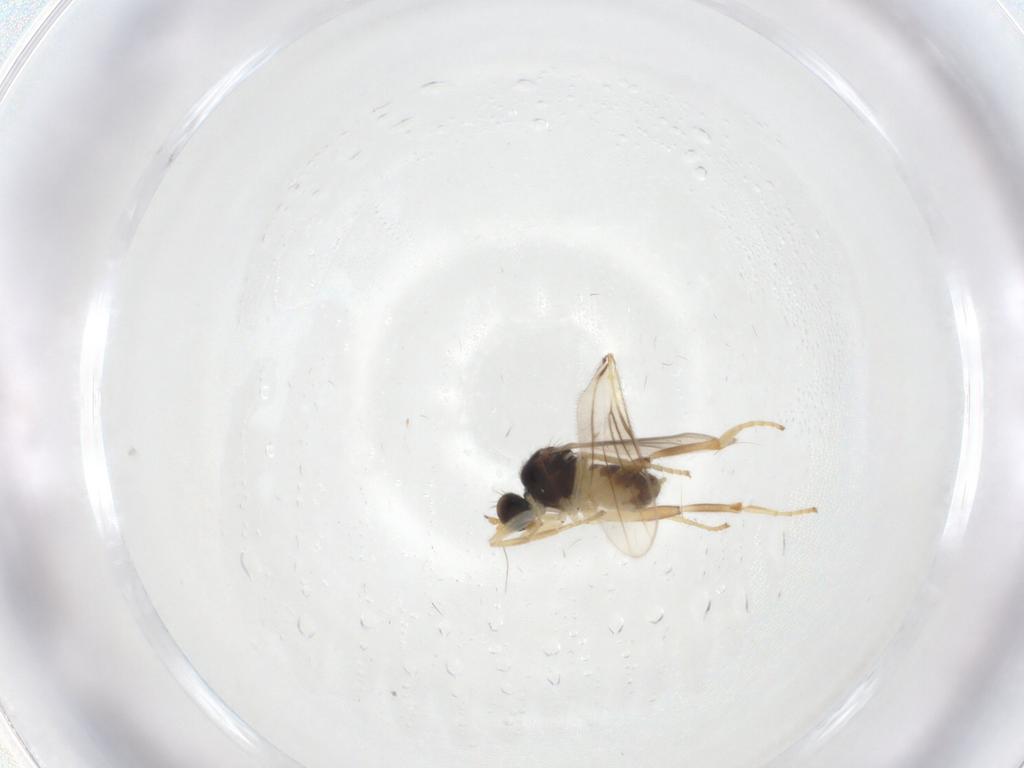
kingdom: Animalia
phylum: Arthropoda
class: Insecta
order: Diptera
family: Hybotidae
